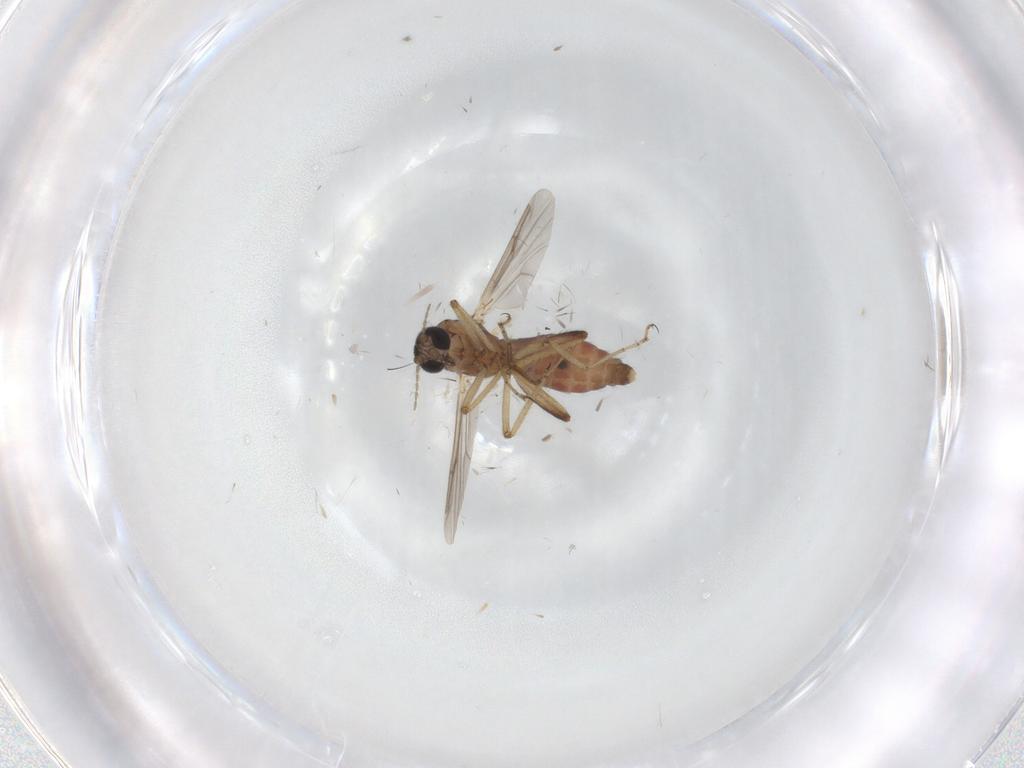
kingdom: Animalia
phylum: Arthropoda
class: Insecta
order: Diptera
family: Ceratopogonidae
